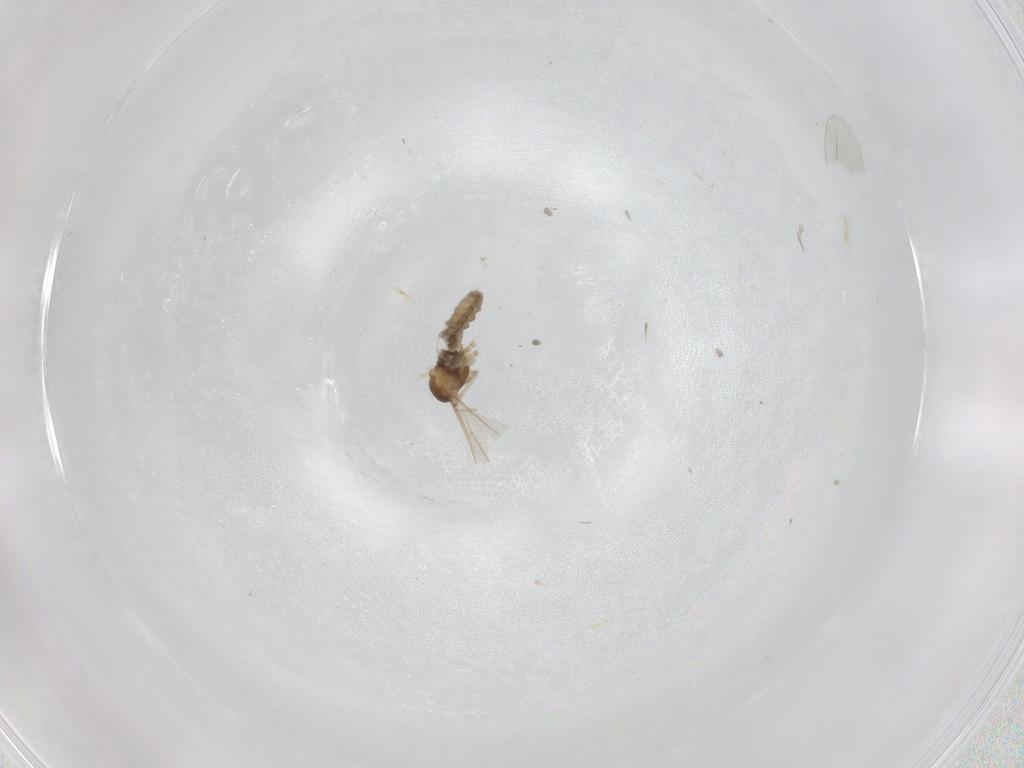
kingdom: Animalia
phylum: Arthropoda
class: Insecta
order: Diptera
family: Cecidomyiidae
